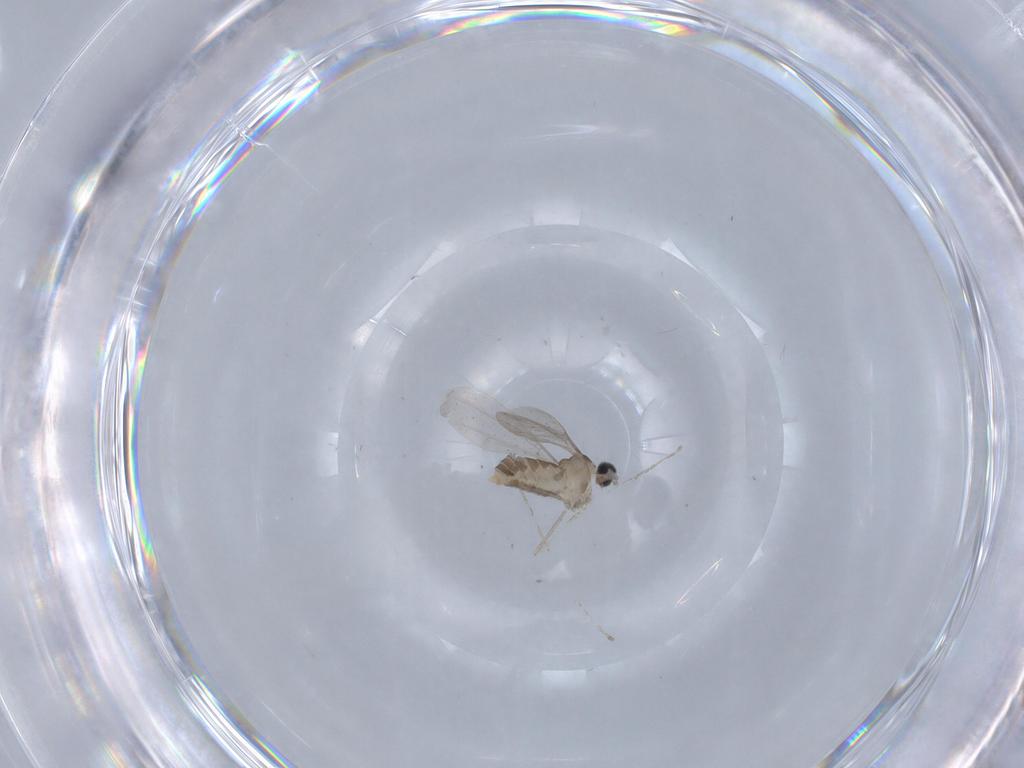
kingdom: Animalia
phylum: Arthropoda
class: Insecta
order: Diptera
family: Cecidomyiidae
